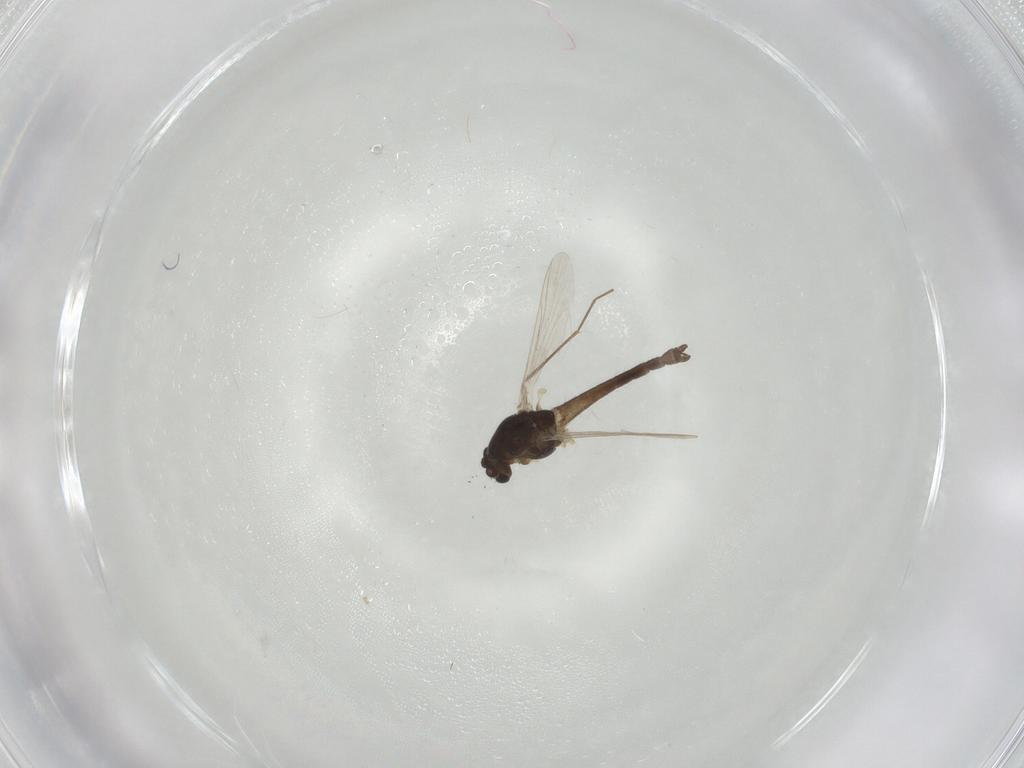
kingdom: Animalia
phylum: Arthropoda
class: Insecta
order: Diptera
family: Chironomidae
